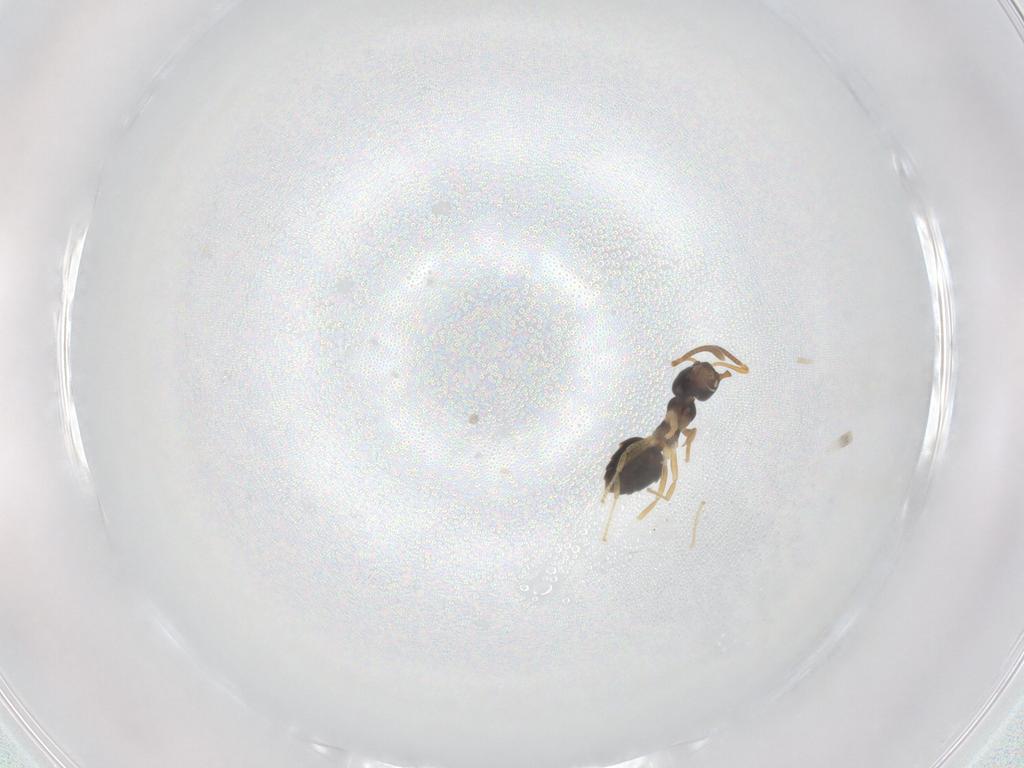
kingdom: Animalia
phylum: Arthropoda
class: Insecta
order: Hymenoptera
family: Formicidae
